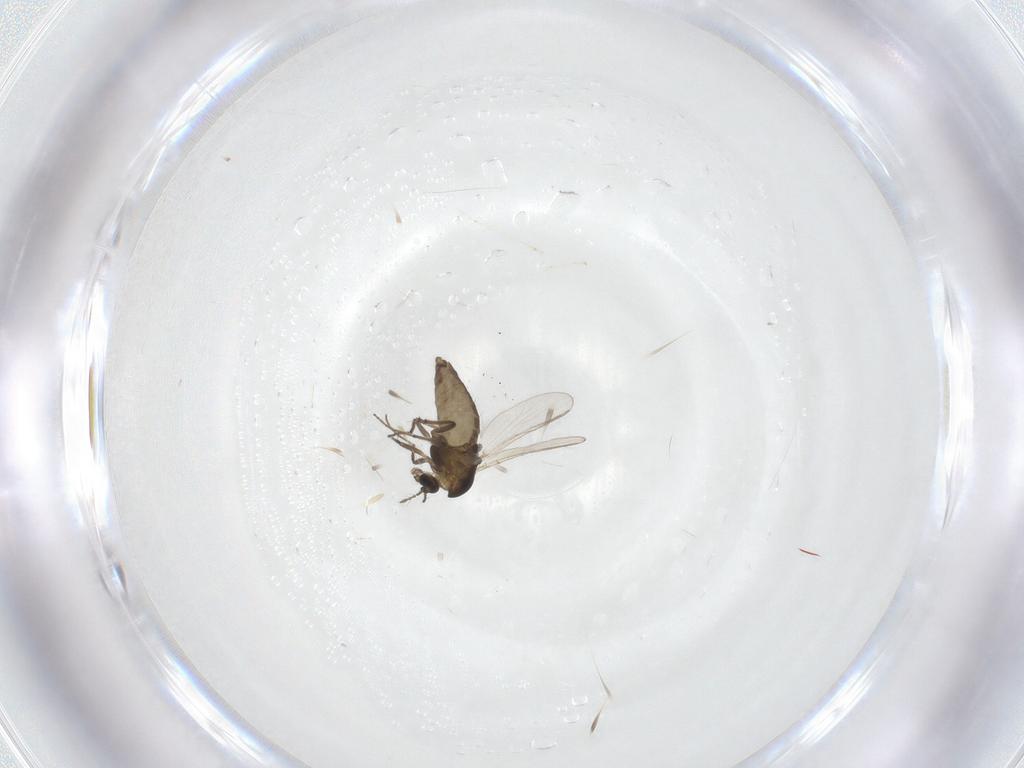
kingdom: Animalia
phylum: Arthropoda
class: Insecta
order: Diptera
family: Chironomidae
